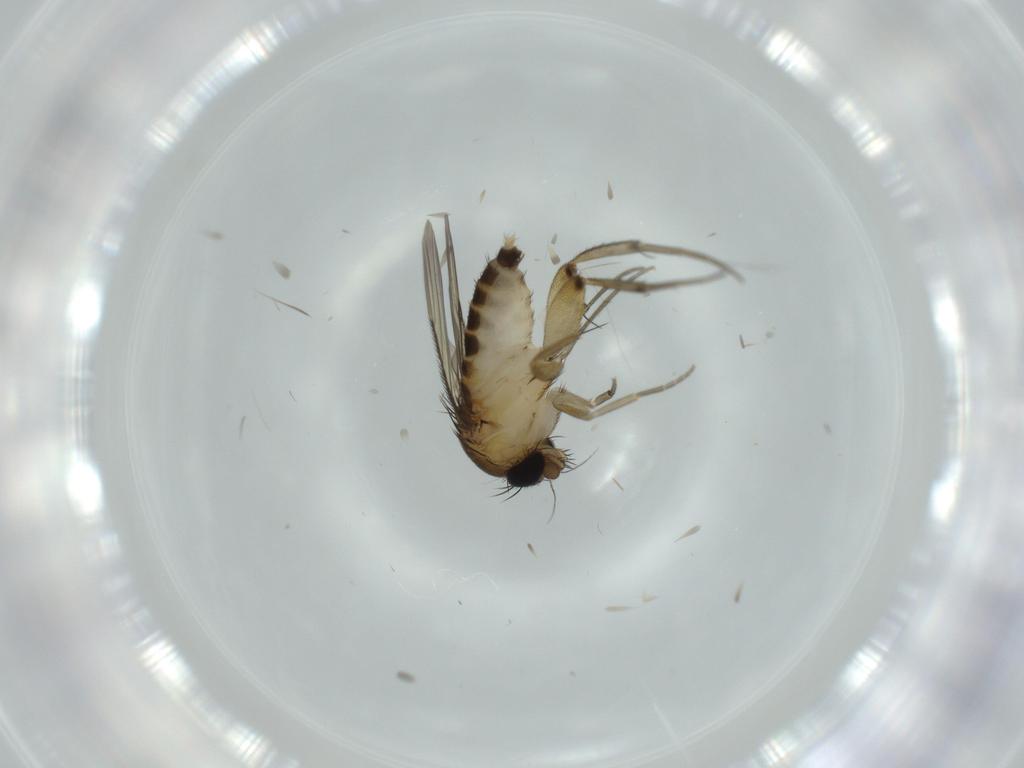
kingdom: Animalia
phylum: Arthropoda
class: Insecta
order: Diptera
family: Phoridae
